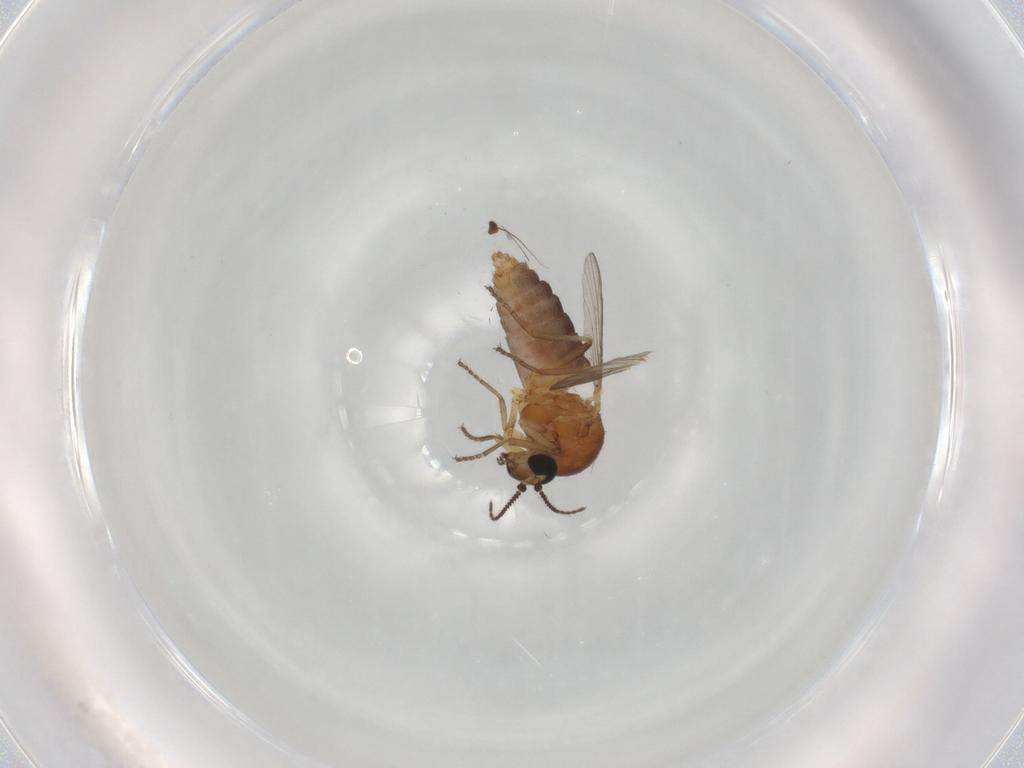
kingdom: Animalia
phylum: Arthropoda
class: Insecta
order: Diptera
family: Ceratopogonidae
